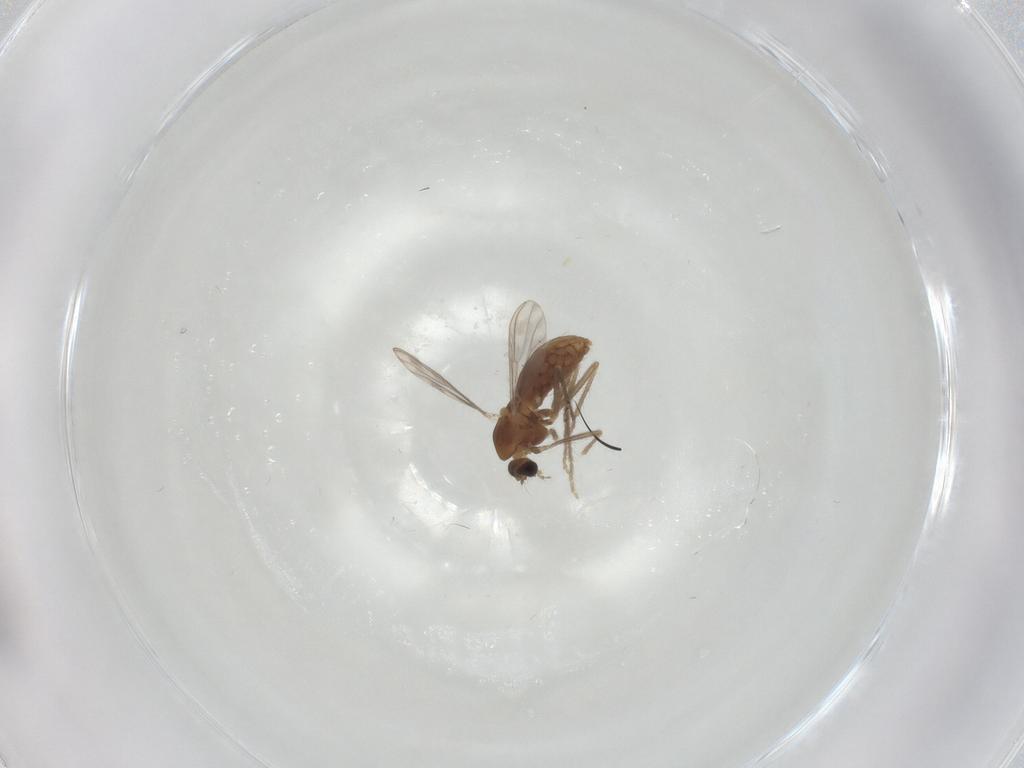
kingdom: Animalia
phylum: Arthropoda
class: Insecta
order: Diptera
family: Chironomidae
